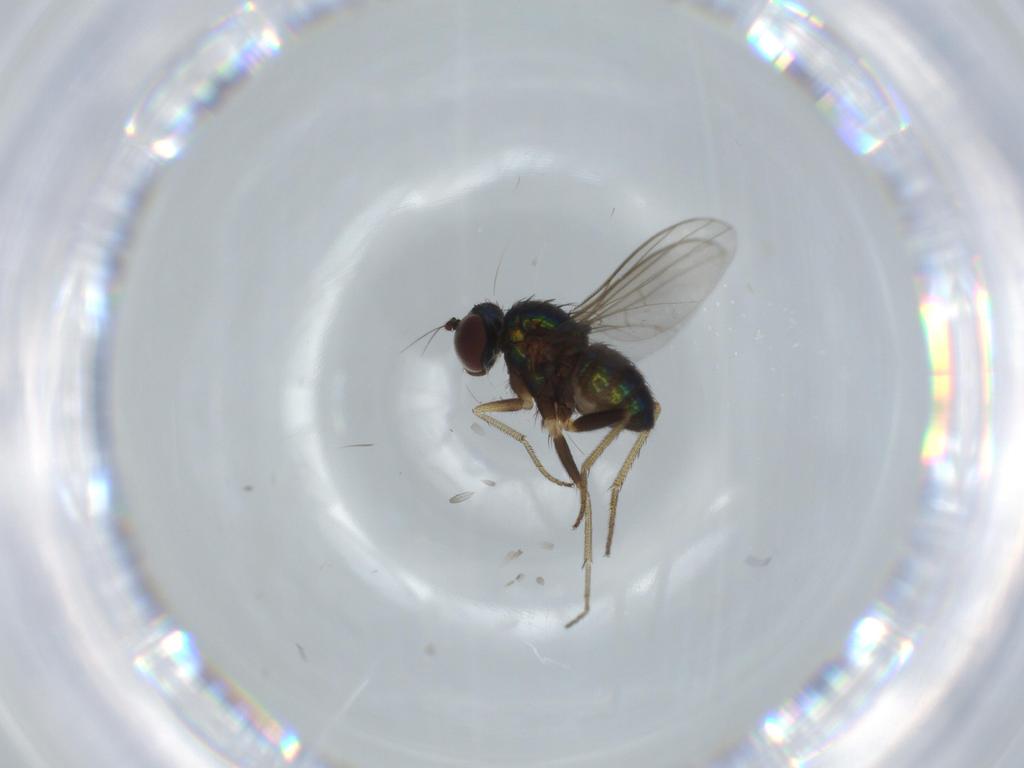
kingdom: Animalia
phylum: Arthropoda
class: Insecta
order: Diptera
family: Dolichopodidae
